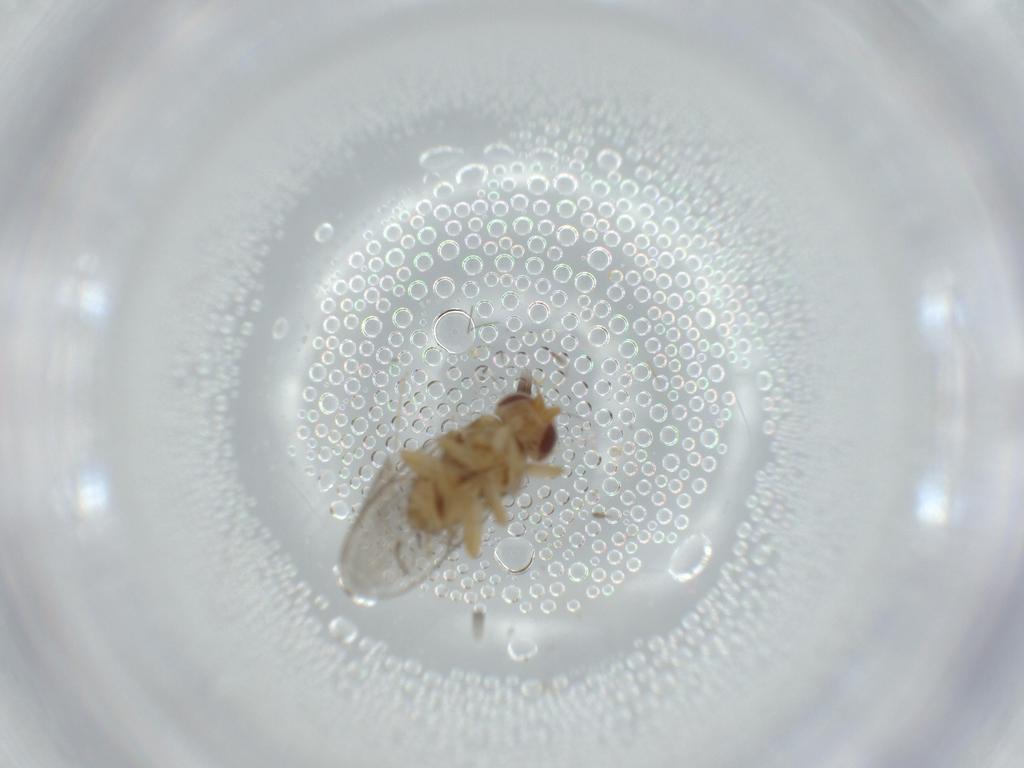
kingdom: Animalia
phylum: Arthropoda
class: Insecta
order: Diptera
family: Chloropidae
